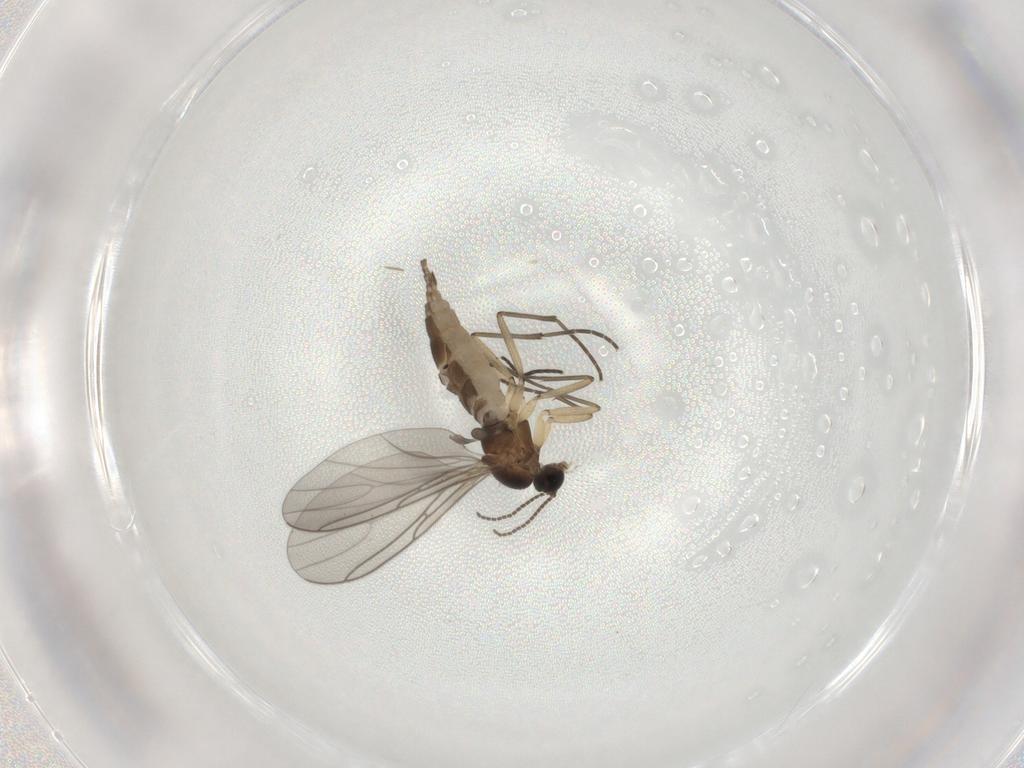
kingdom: Animalia
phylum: Arthropoda
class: Insecta
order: Diptera
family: Sciaridae
